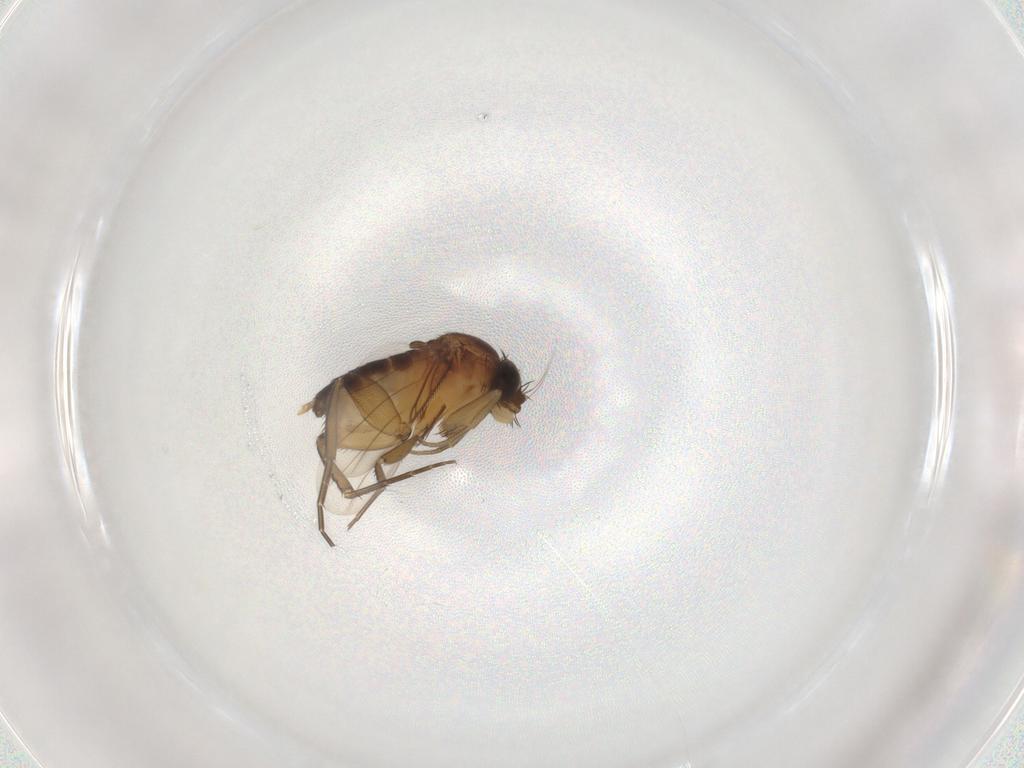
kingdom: Animalia
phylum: Arthropoda
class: Insecta
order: Diptera
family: Phoridae
